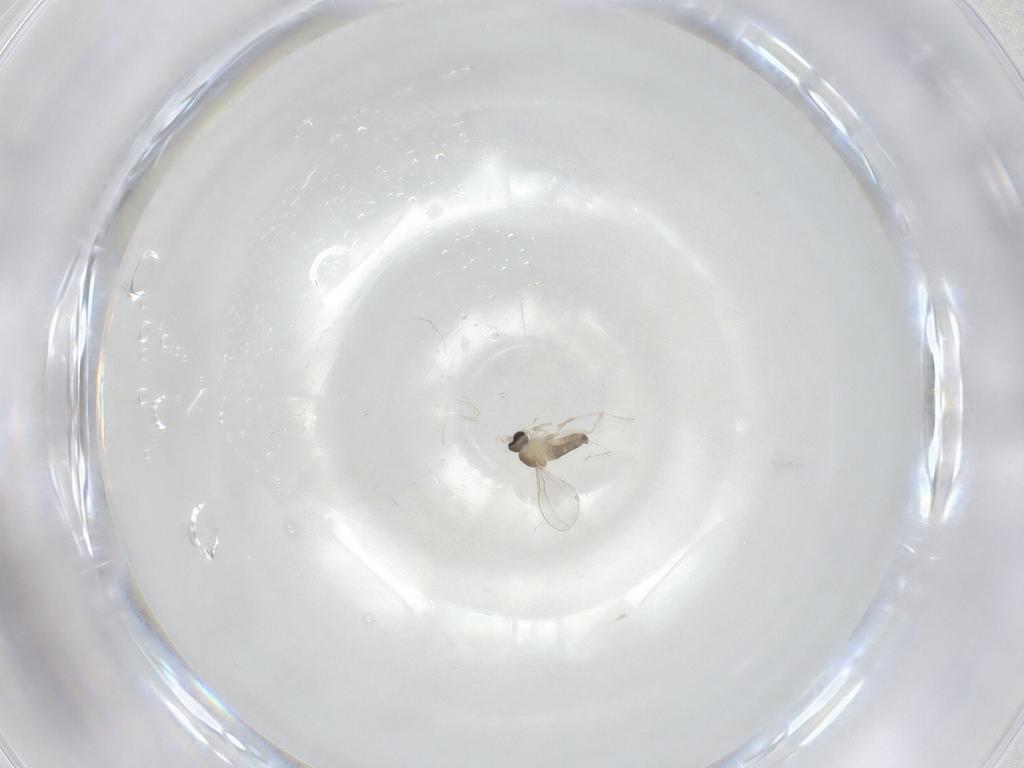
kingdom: Animalia
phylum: Arthropoda
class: Insecta
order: Diptera
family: Cecidomyiidae
